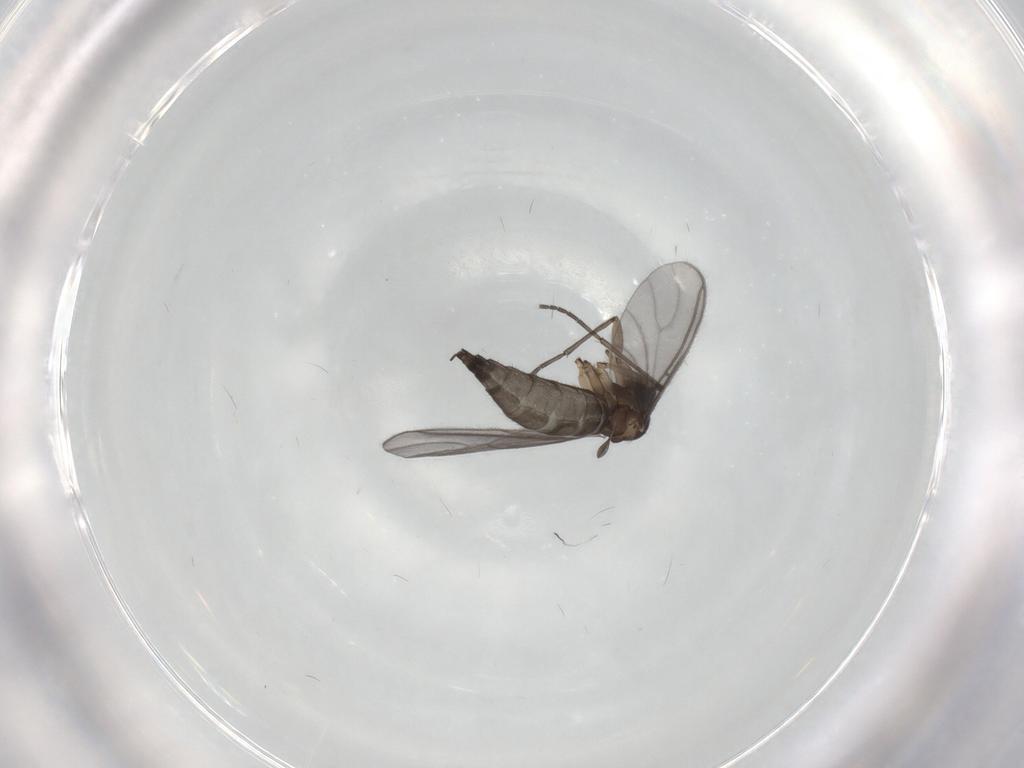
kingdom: Animalia
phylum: Arthropoda
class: Insecta
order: Diptera
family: Sciaridae
